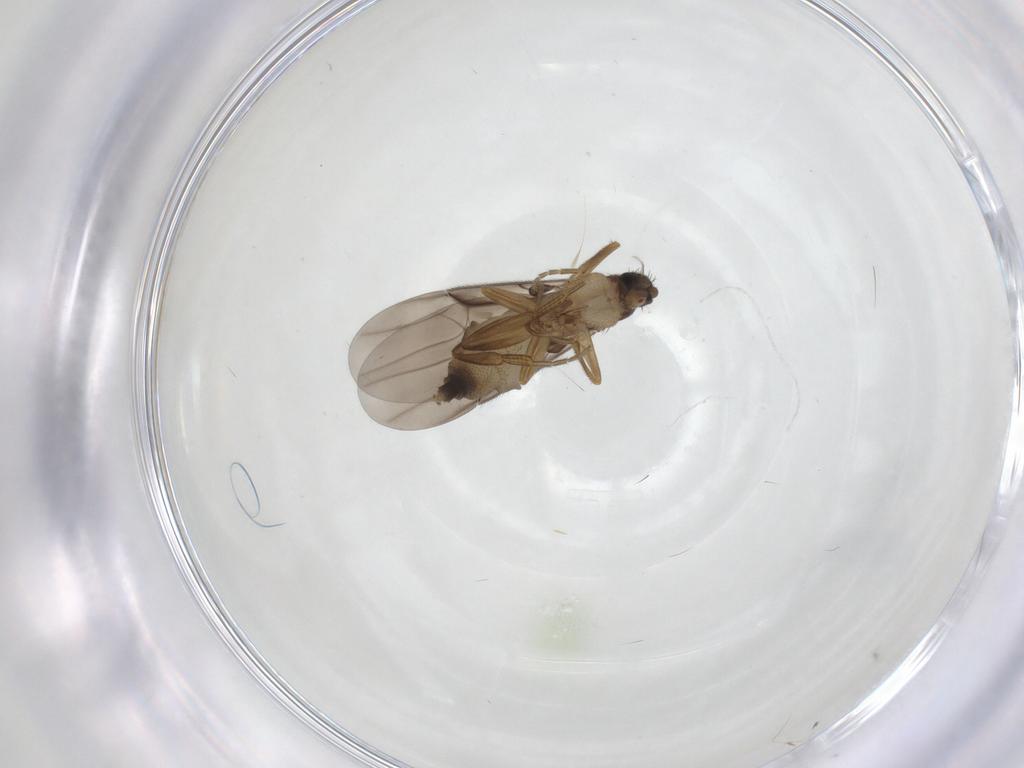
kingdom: Animalia
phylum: Arthropoda
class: Insecta
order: Diptera
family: Phoridae
